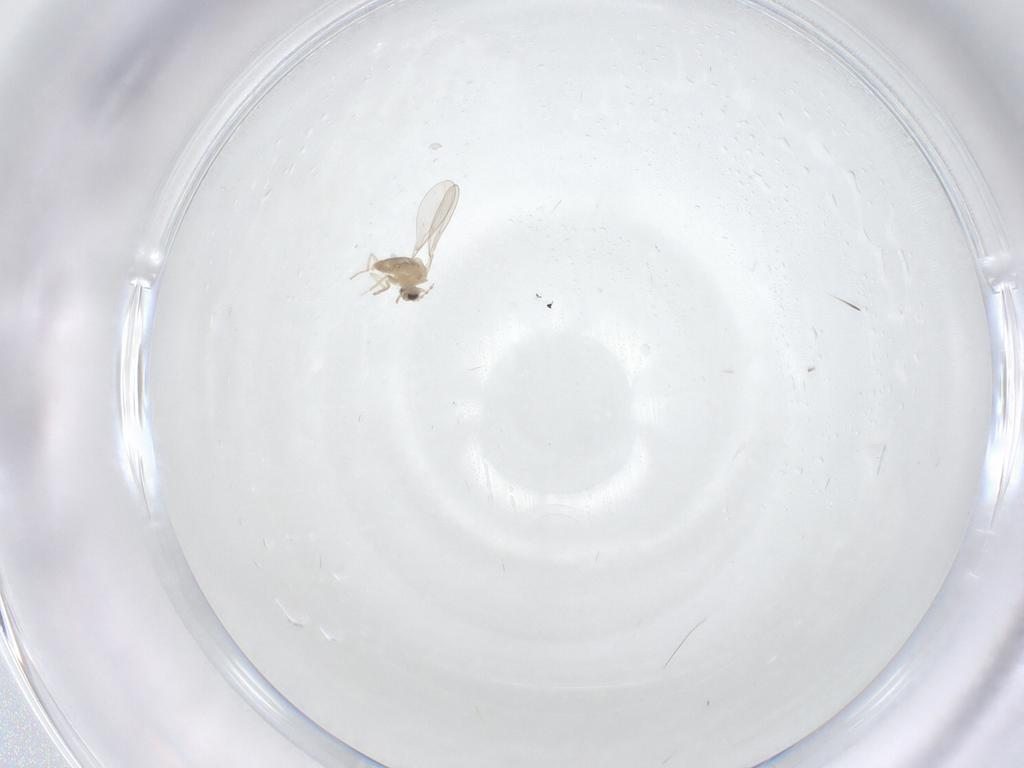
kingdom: Animalia
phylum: Arthropoda
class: Insecta
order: Diptera
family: Cecidomyiidae
